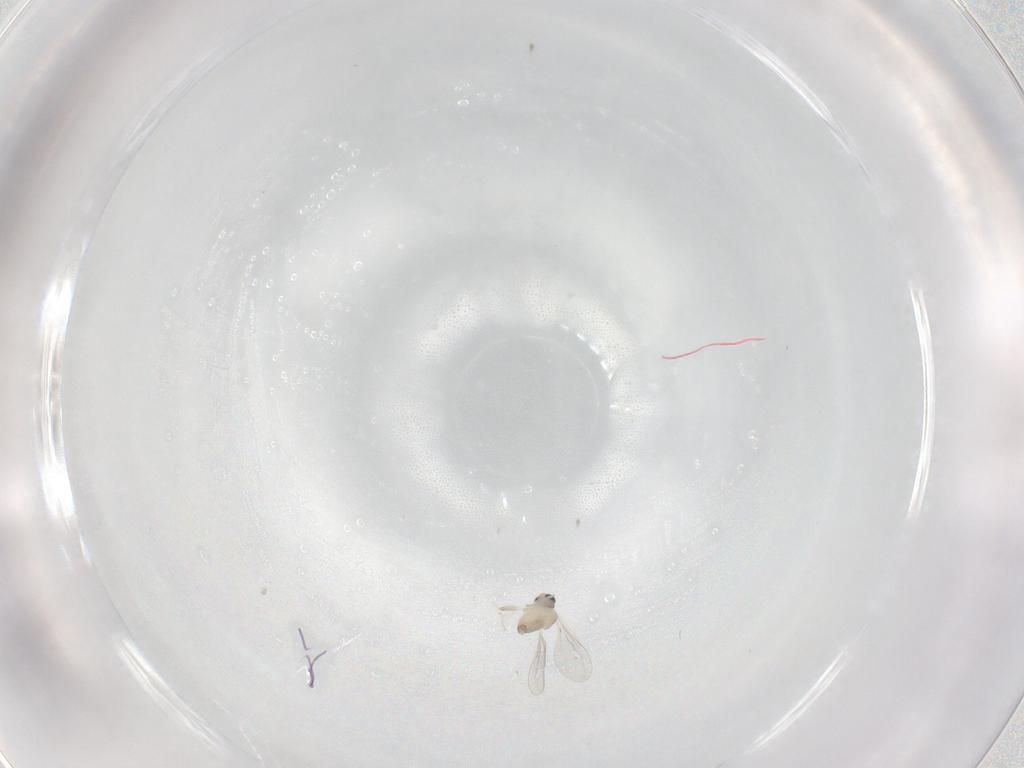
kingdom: Animalia
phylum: Arthropoda
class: Insecta
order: Diptera
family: Cecidomyiidae
